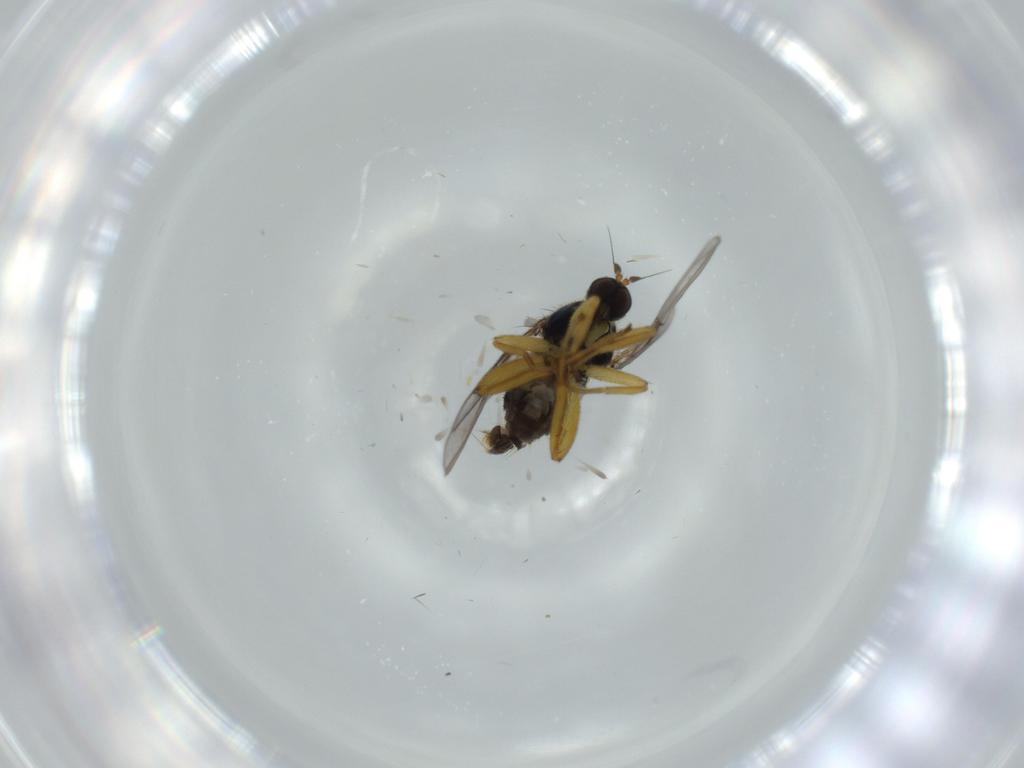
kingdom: Animalia
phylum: Arthropoda
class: Insecta
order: Diptera
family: Hybotidae
